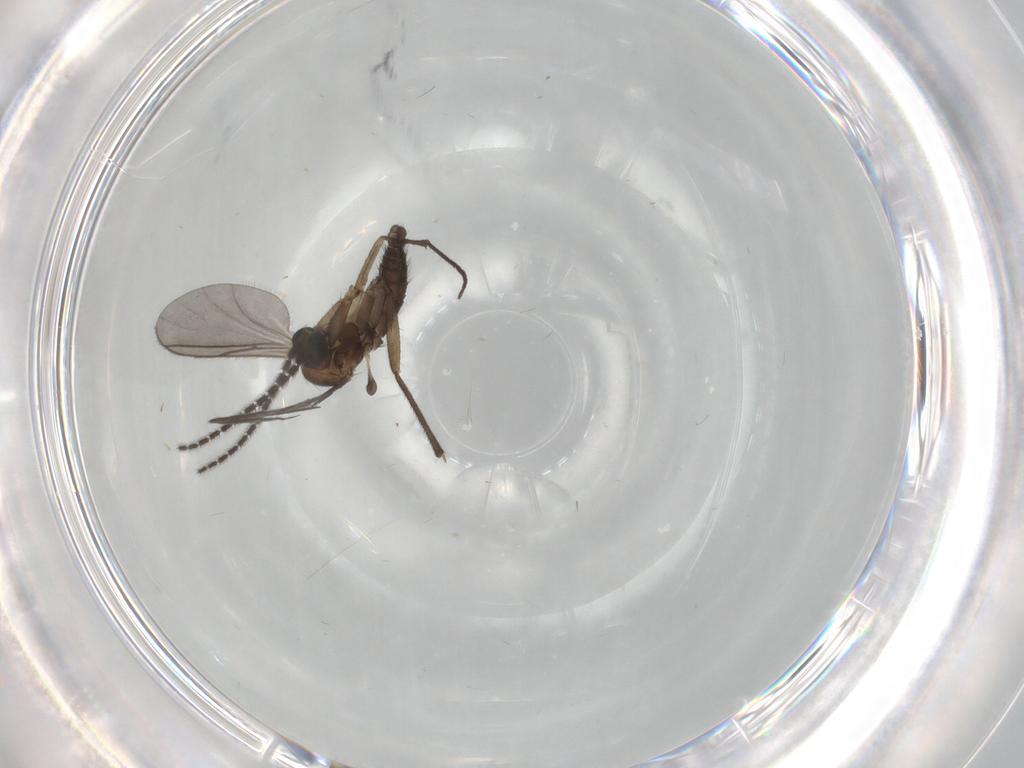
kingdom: Animalia
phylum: Arthropoda
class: Insecta
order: Diptera
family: Sciaridae
